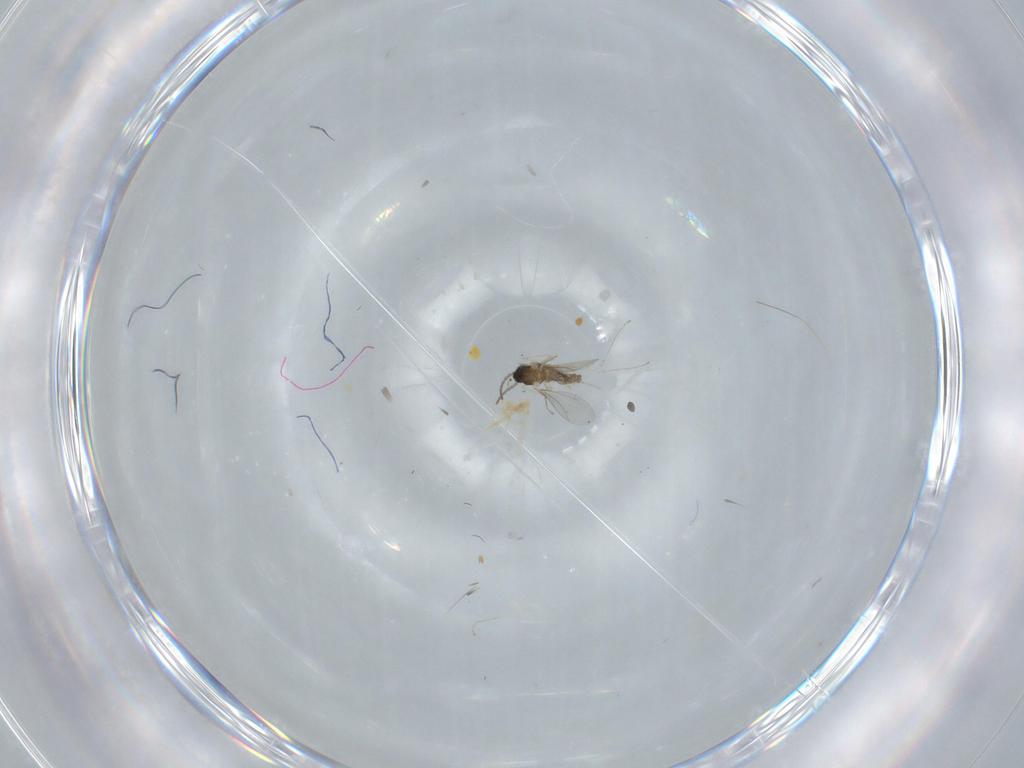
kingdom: Animalia
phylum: Arthropoda
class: Insecta
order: Diptera
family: Cecidomyiidae
